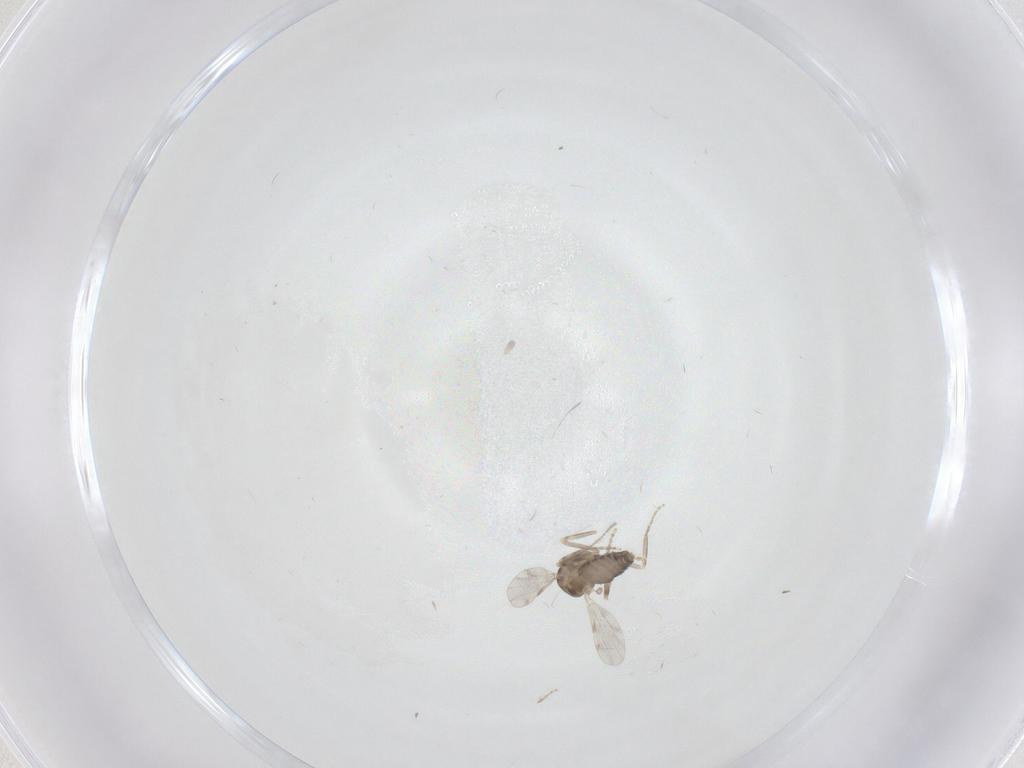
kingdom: Animalia
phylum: Arthropoda
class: Insecta
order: Diptera
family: Ceratopogonidae
